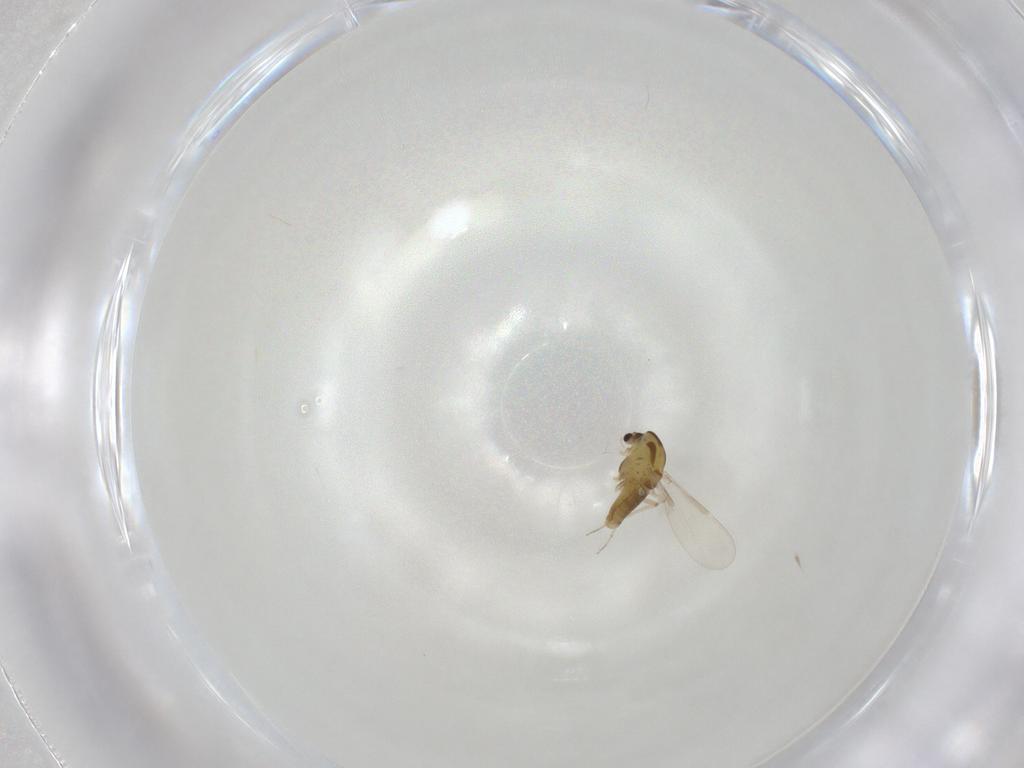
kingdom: Animalia
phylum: Arthropoda
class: Insecta
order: Diptera
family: Chironomidae
